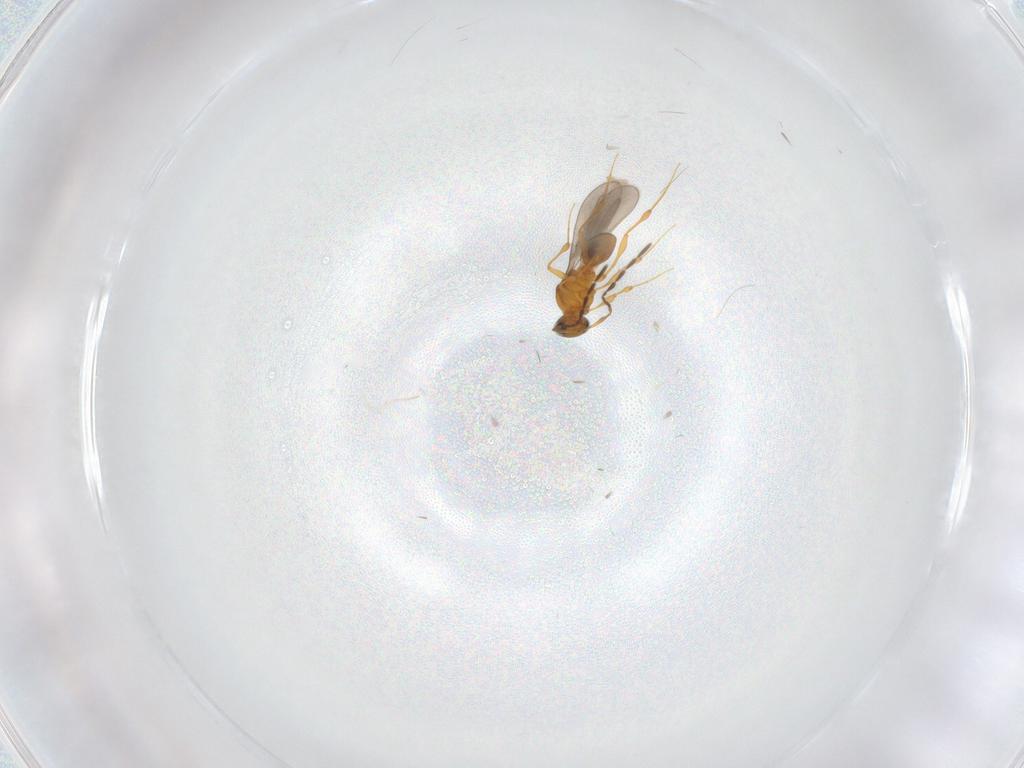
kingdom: Animalia
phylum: Arthropoda
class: Insecta
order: Hymenoptera
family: Platygastridae
